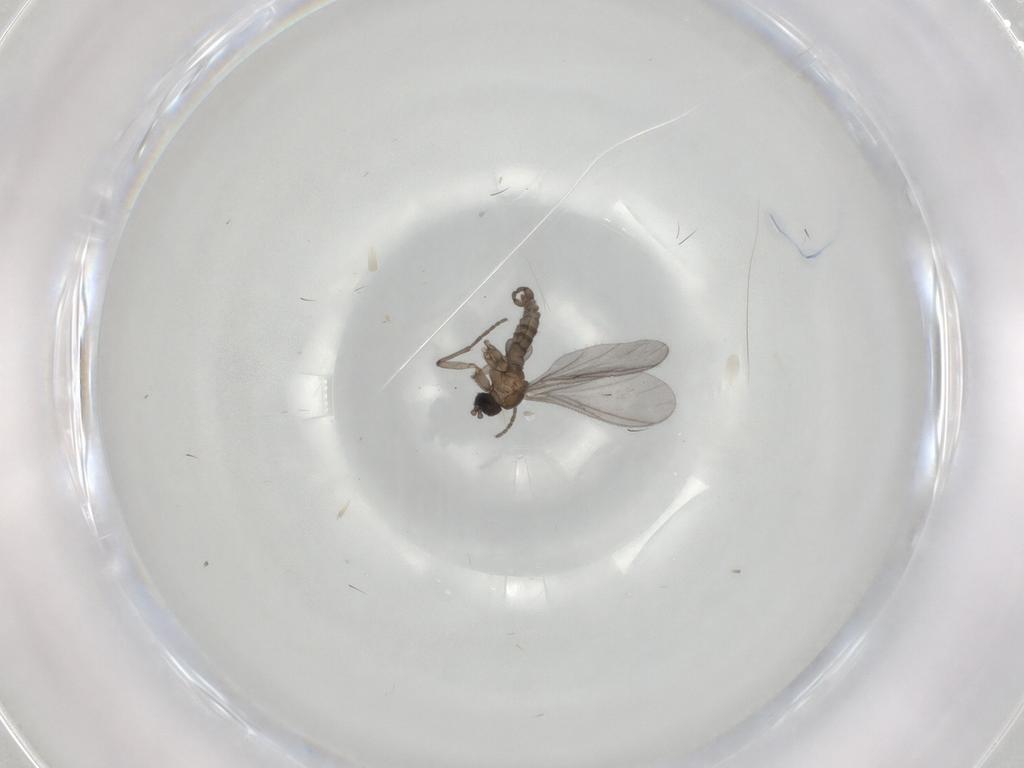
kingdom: Animalia
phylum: Arthropoda
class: Insecta
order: Diptera
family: Sciaridae
